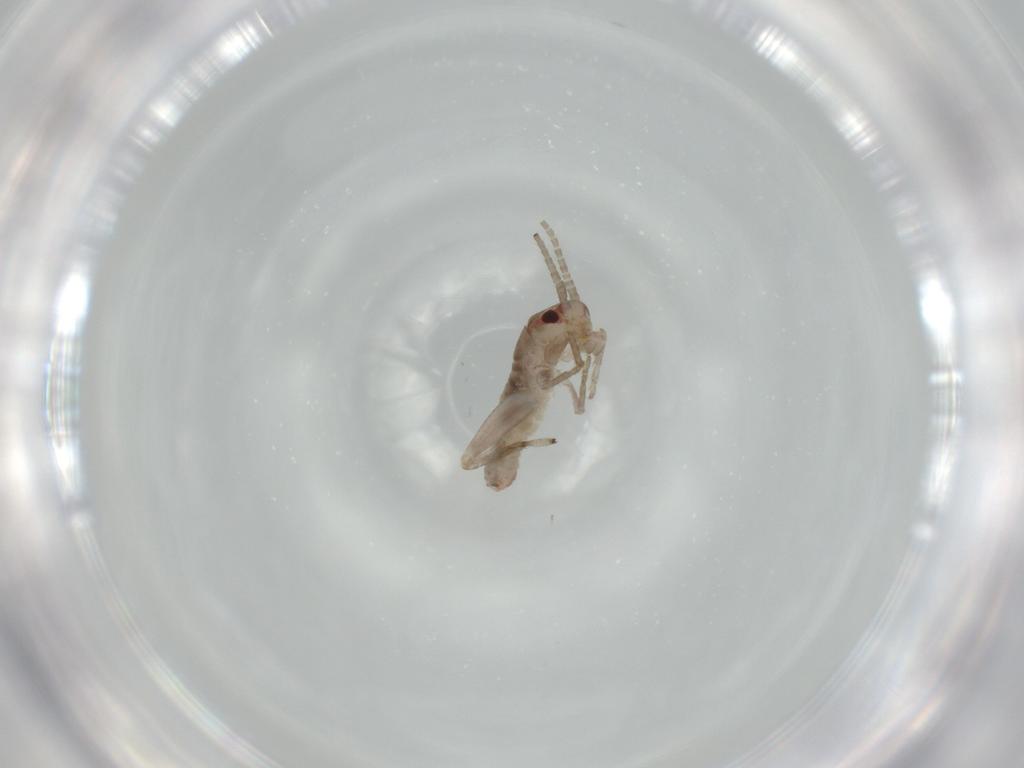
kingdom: Animalia
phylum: Arthropoda
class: Insecta
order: Orthoptera
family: Mogoplistidae
